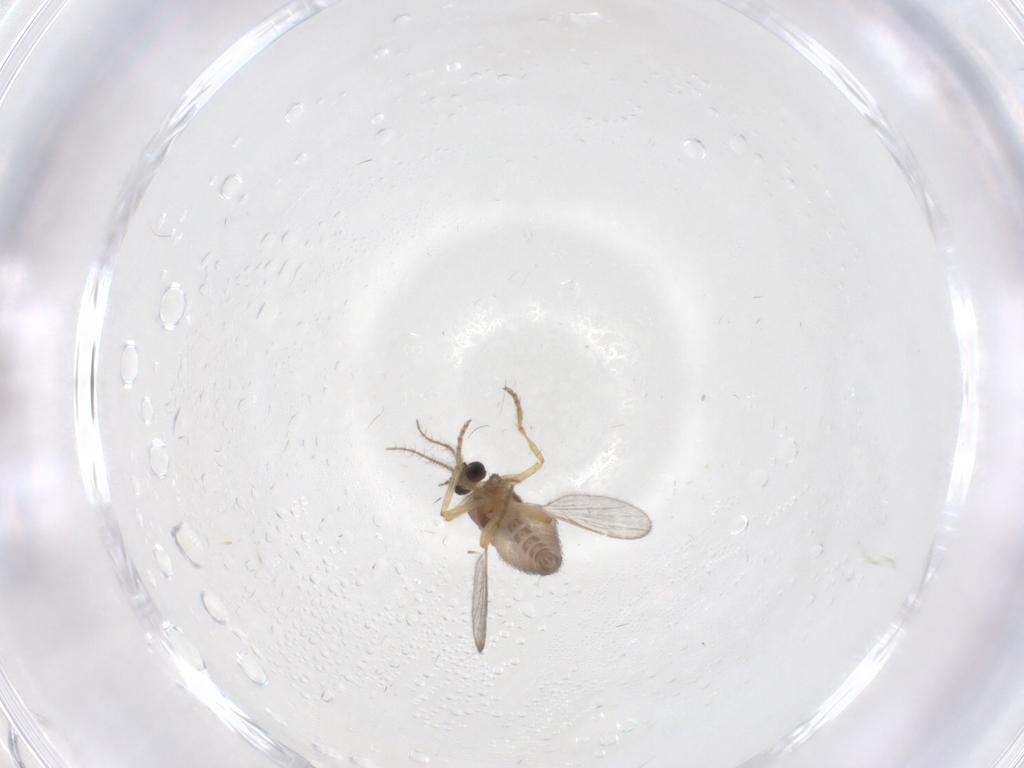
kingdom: Animalia
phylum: Arthropoda
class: Insecta
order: Diptera
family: Ceratopogonidae
